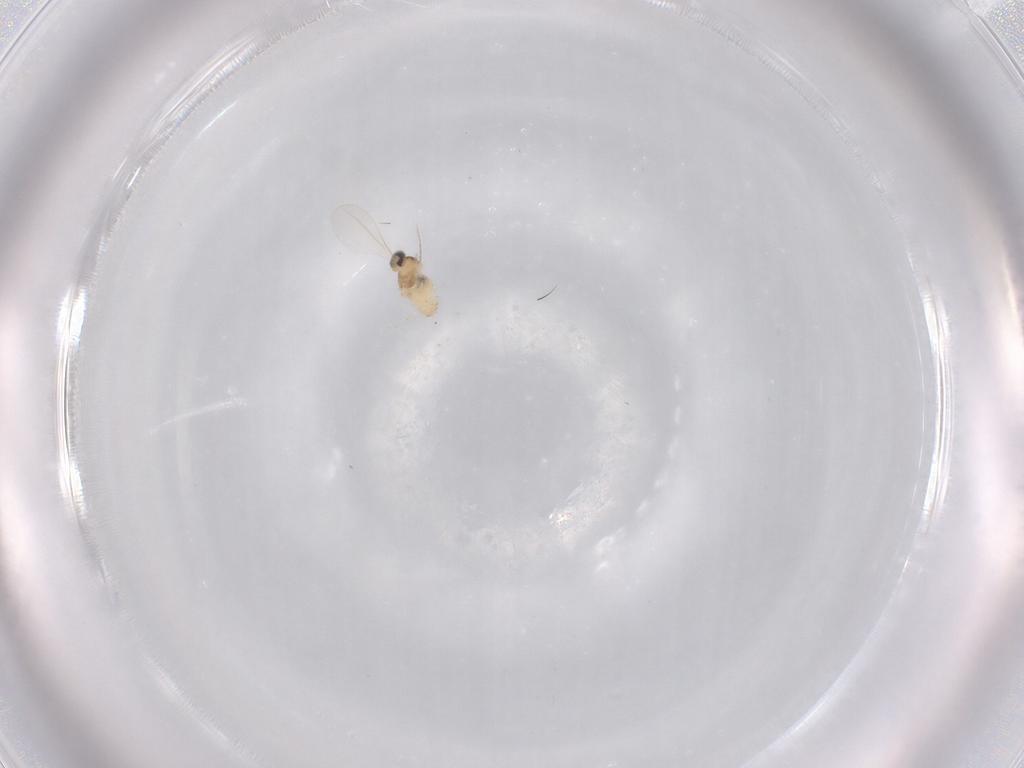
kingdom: Animalia
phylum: Arthropoda
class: Insecta
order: Diptera
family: Cecidomyiidae
